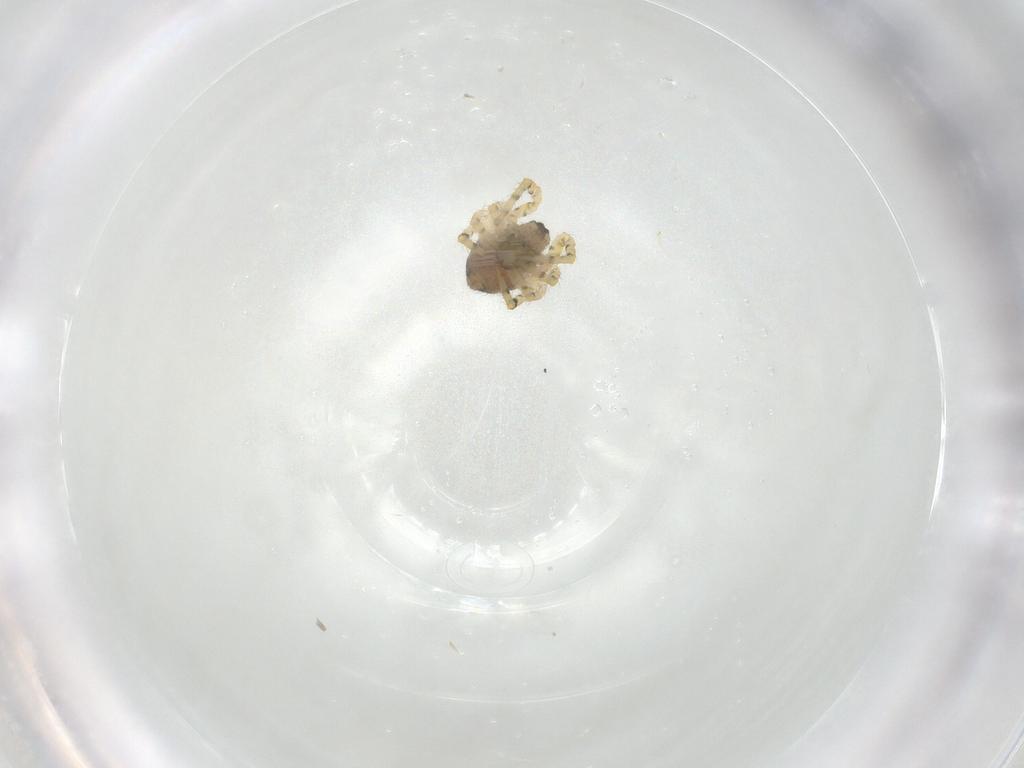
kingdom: Animalia
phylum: Arthropoda
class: Arachnida
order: Araneae
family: Theridiidae
